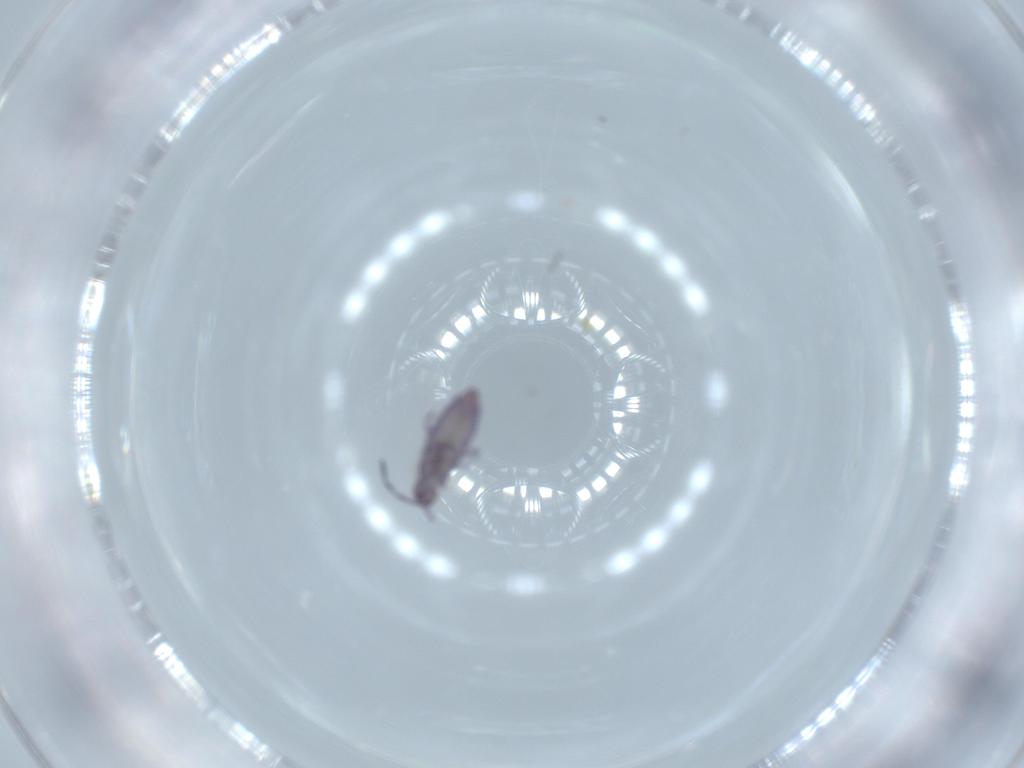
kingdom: Animalia
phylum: Arthropoda
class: Collembola
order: Entomobryomorpha
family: Entomobryidae
